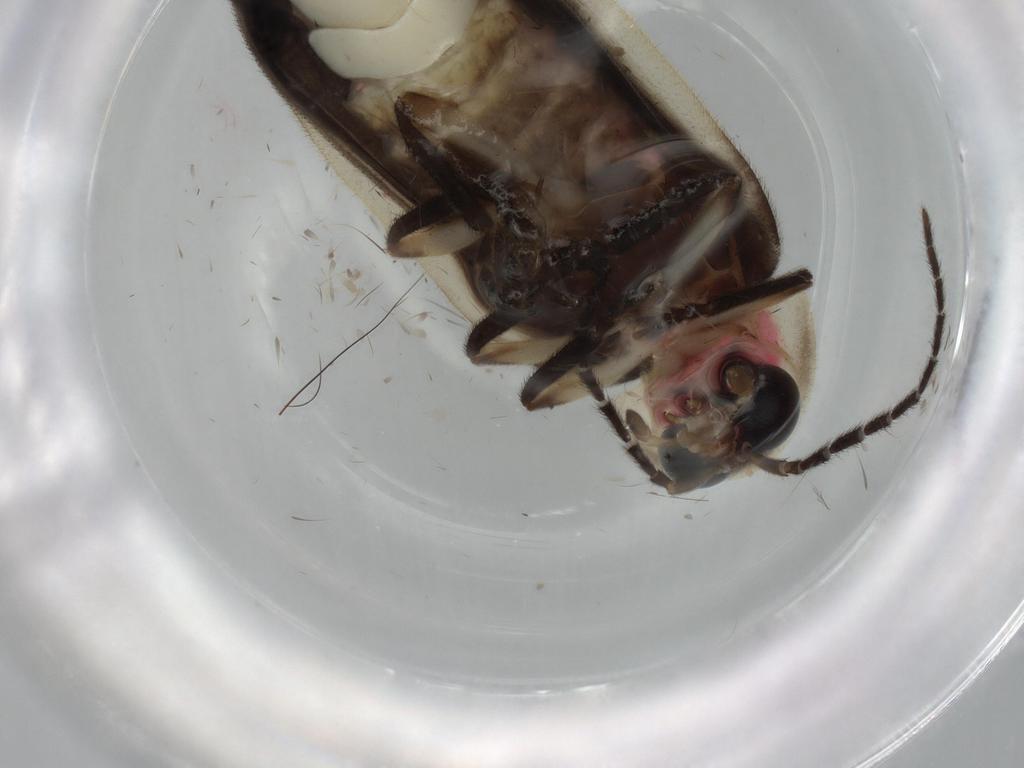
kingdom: Animalia
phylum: Arthropoda
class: Insecta
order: Coleoptera
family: Lampyridae
